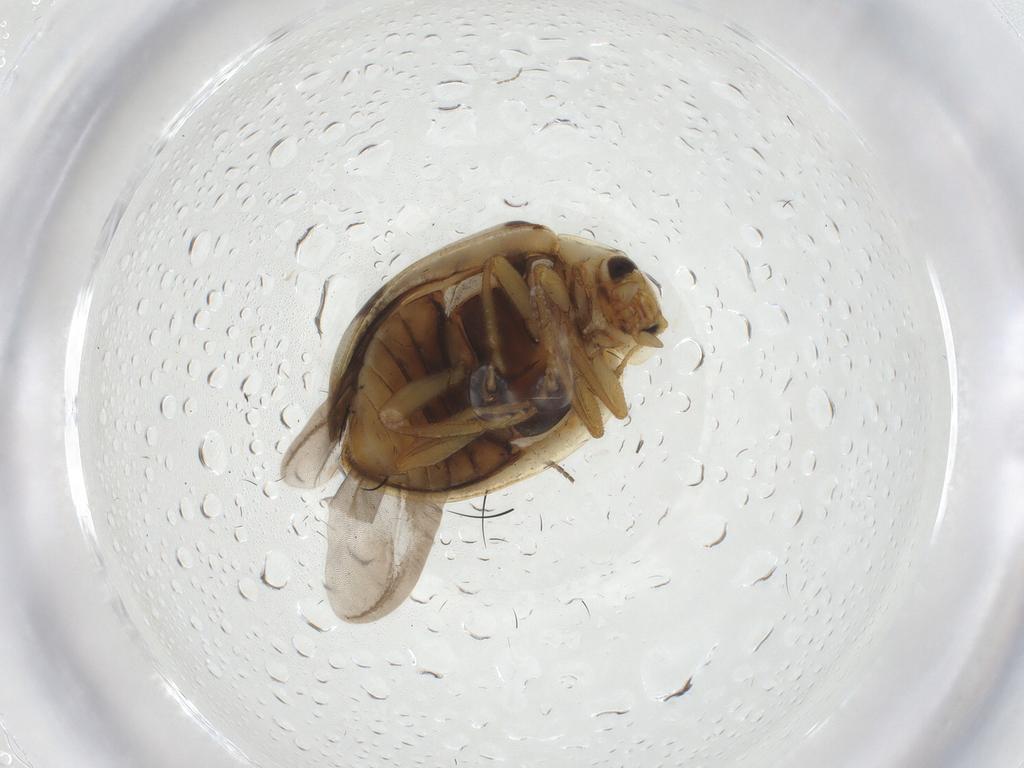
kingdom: Animalia
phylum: Arthropoda
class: Insecta
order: Coleoptera
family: Coccinellidae
